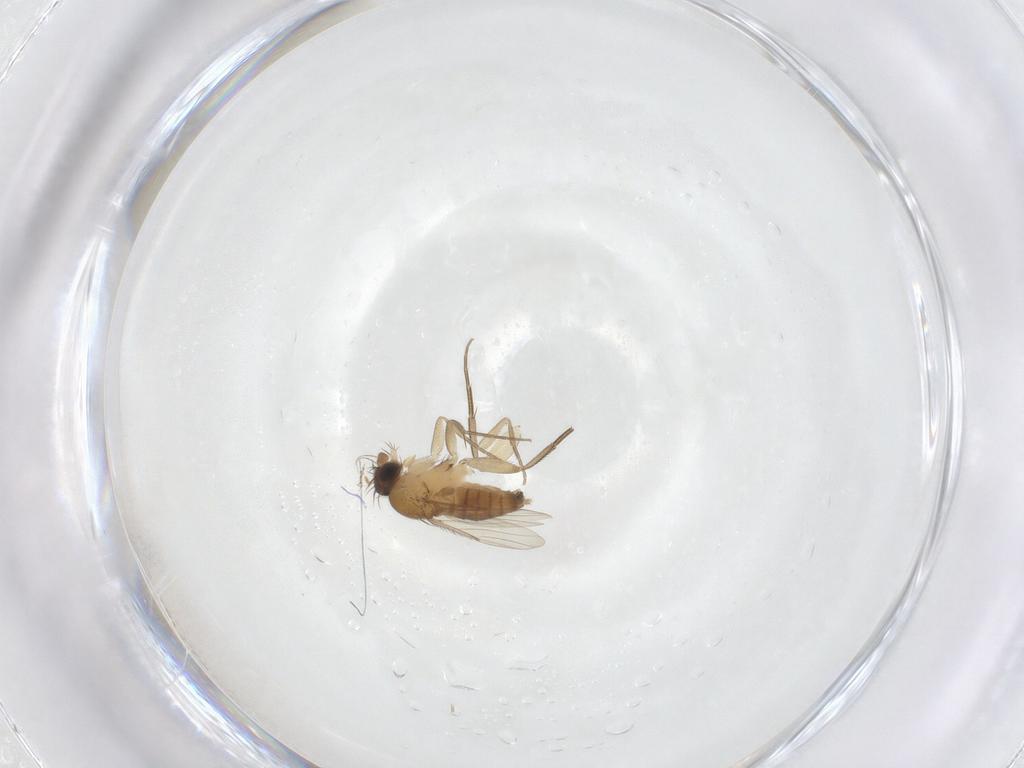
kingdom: Animalia
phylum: Arthropoda
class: Insecta
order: Diptera
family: Phoridae
